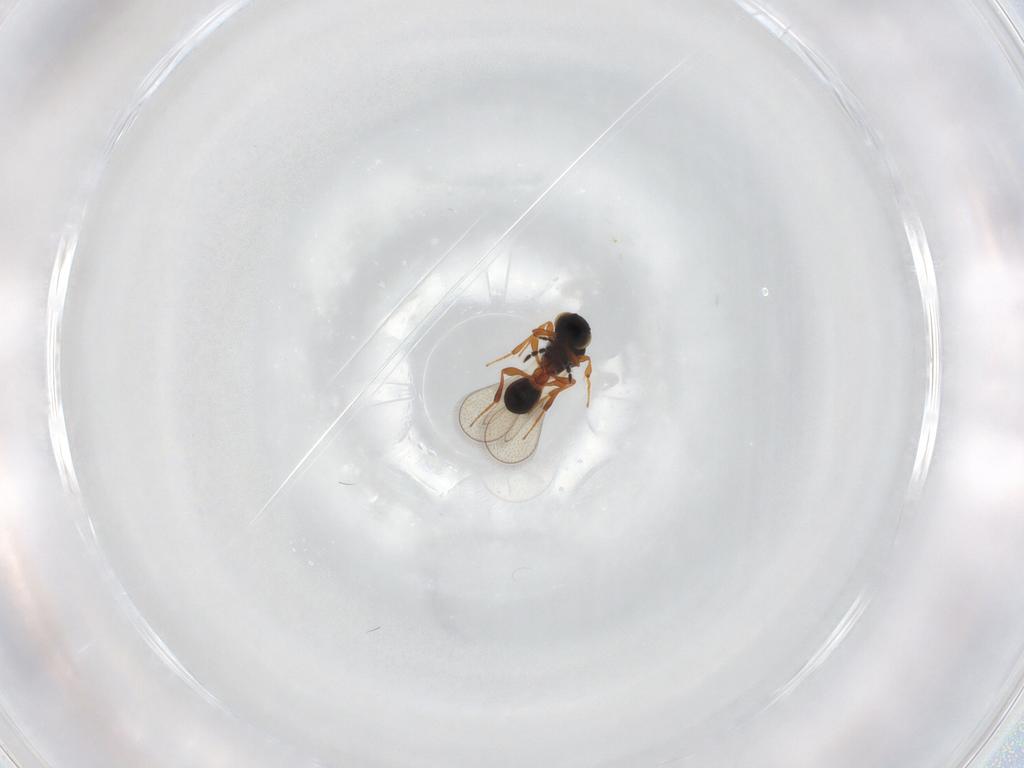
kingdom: Animalia
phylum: Arthropoda
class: Insecta
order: Hymenoptera
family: Platygastridae
